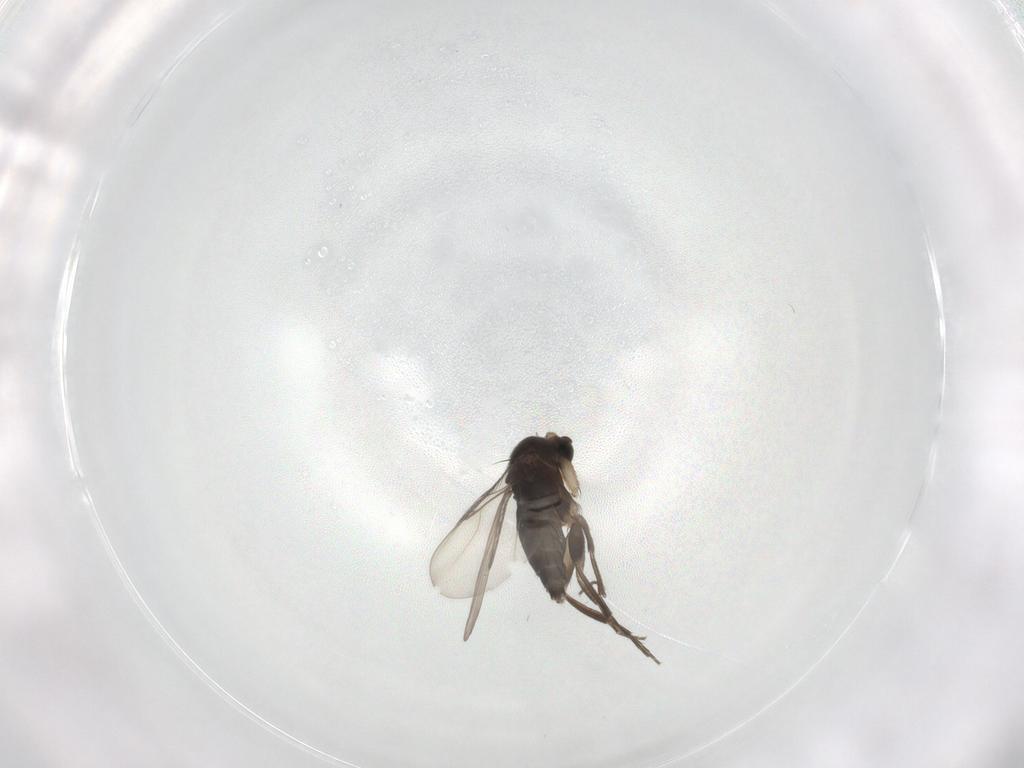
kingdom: Animalia
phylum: Arthropoda
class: Insecta
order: Diptera
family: Phoridae
